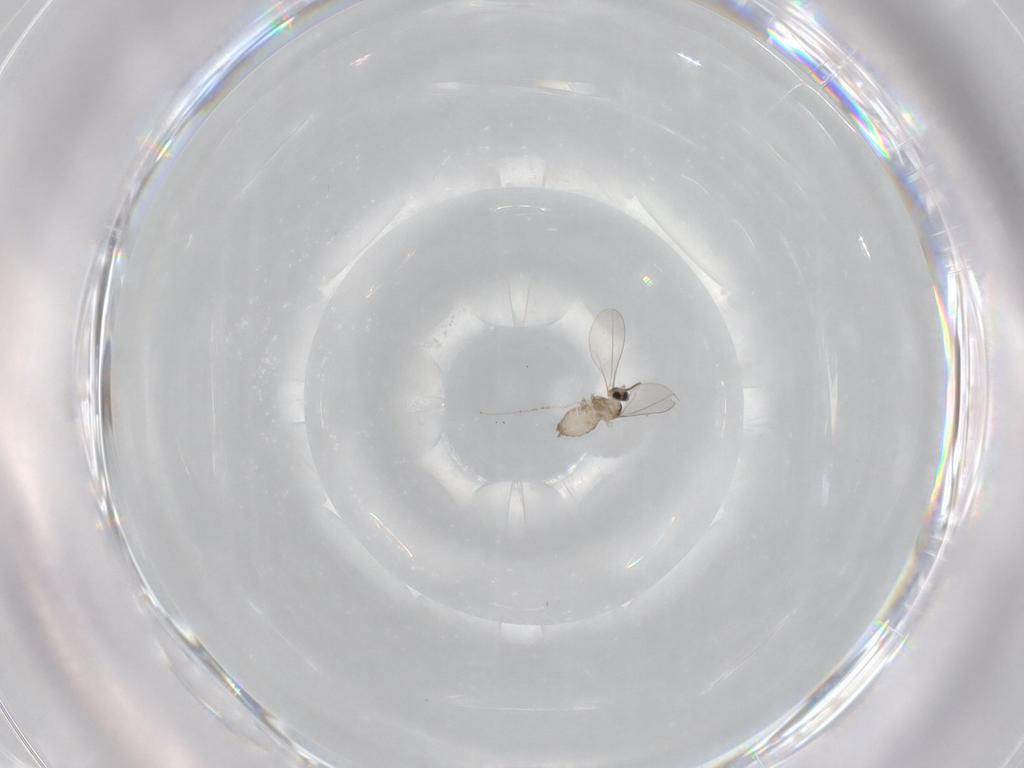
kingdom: Animalia
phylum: Arthropoda
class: Insecta
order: Diptera
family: Cecidomyiidae
